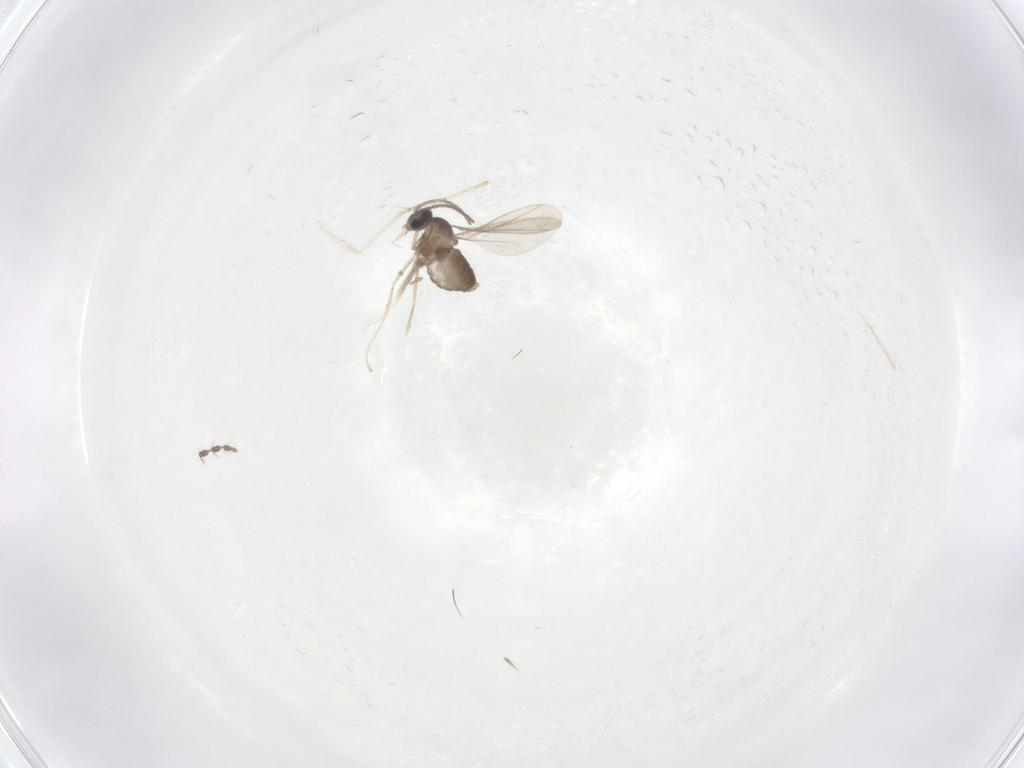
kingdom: Animalia
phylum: Arthropoda
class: Insecta
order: Diptera
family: Cecidomyiidae
